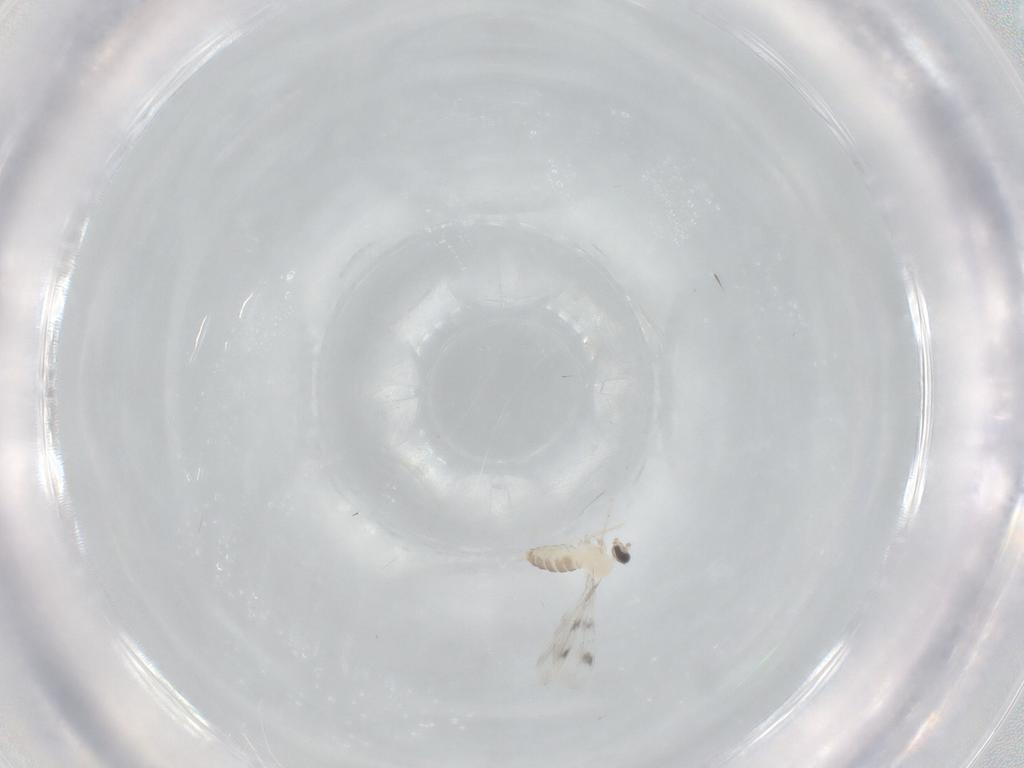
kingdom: Animalia
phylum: Arthropoda
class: Insecta
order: Diptera
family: Cecidomyiidae
